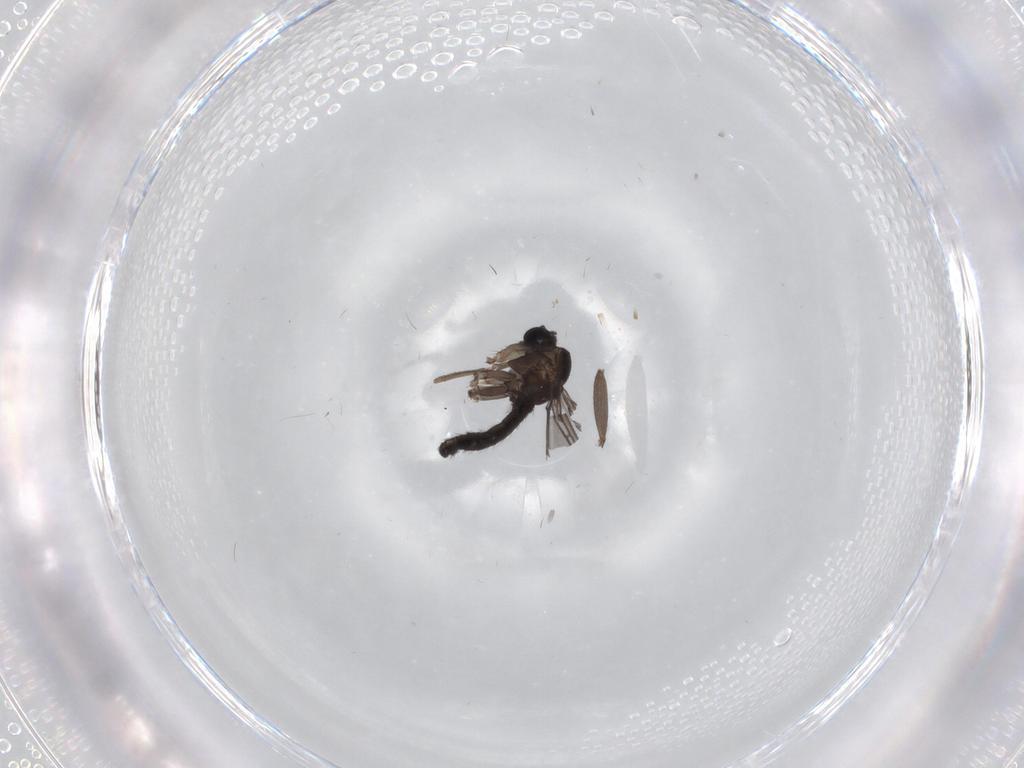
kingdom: Animalia
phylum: Arthropoda
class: Insecta
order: Diptera
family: Sciaridae
